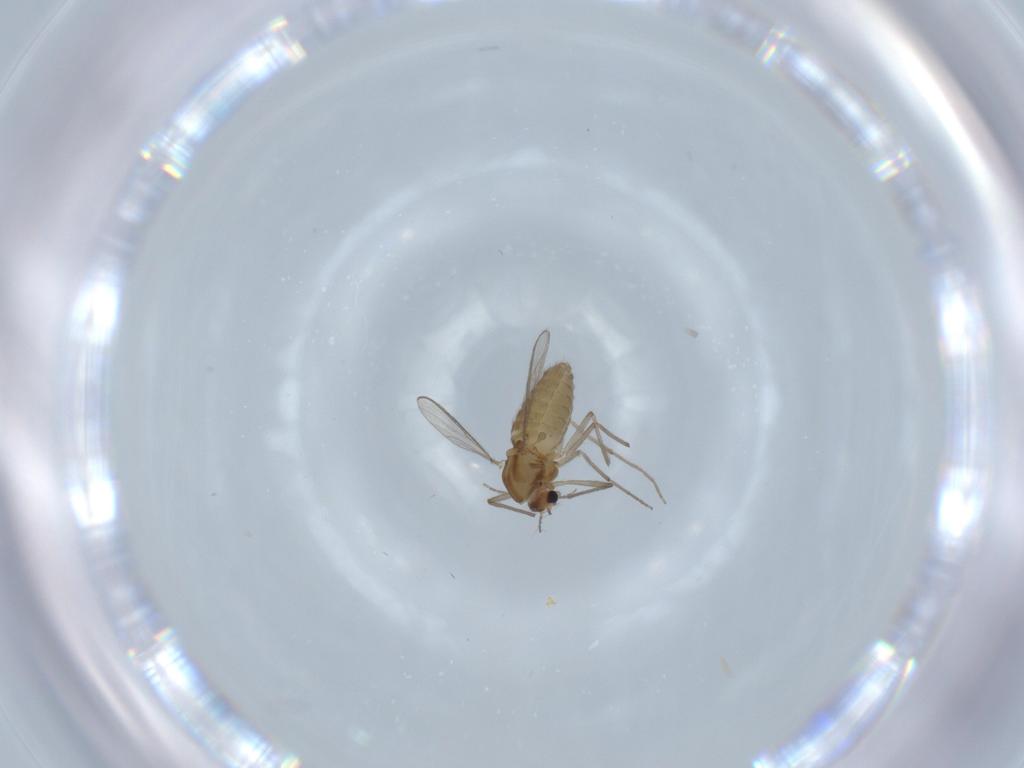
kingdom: Animalia
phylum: Arthropoda
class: Insecta
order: Diptera
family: Chironomidae
